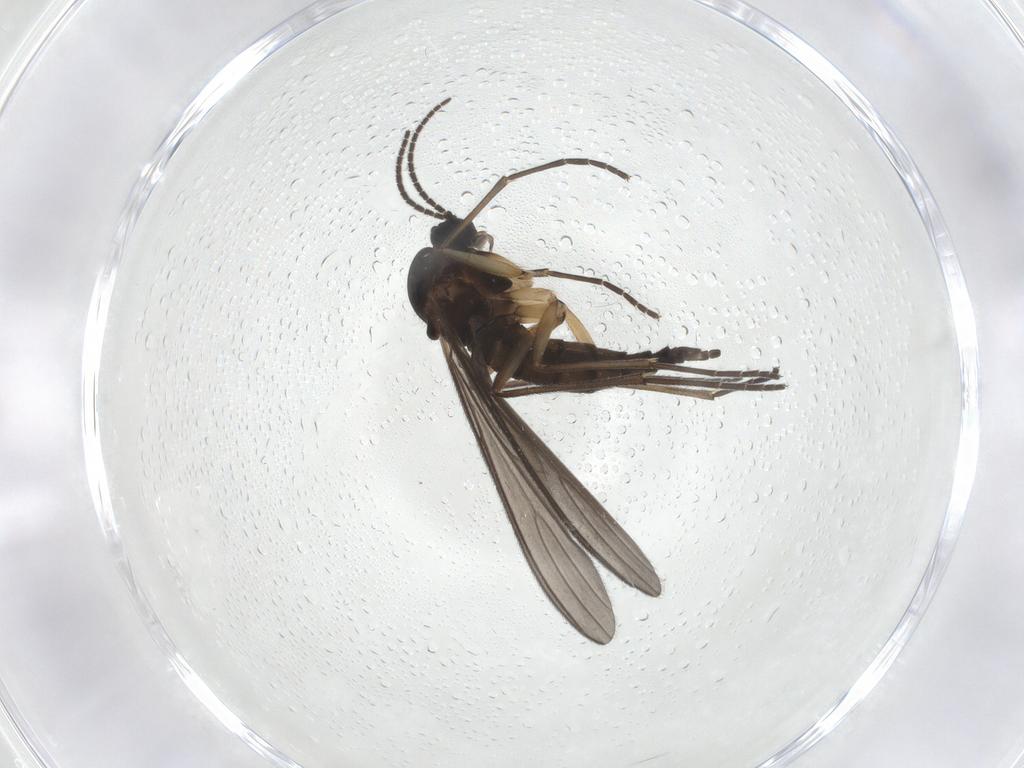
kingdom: Animalia
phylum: Arthropoda
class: Insecta
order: Diptera
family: Sciaridae
